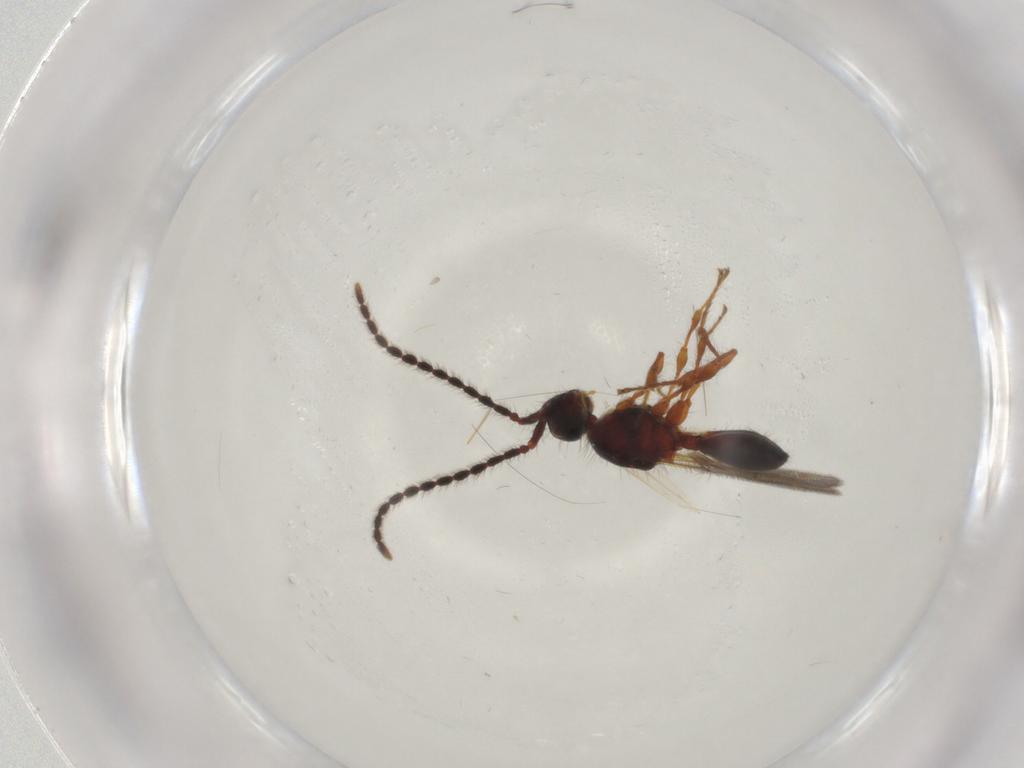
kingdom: Animalia
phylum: Arthropoda
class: Insecta
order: Hymenoptera
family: Diapriidae
